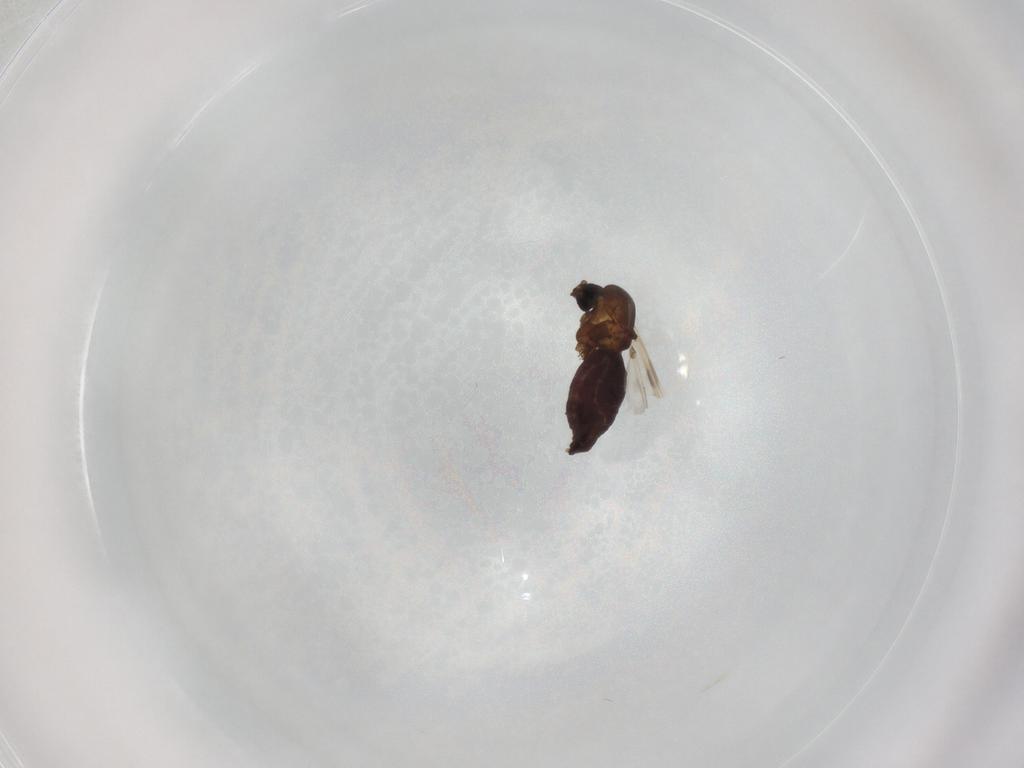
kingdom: Animalia
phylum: Arthropoda
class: Insecta
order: Diptera
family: Ceratopogonidae
